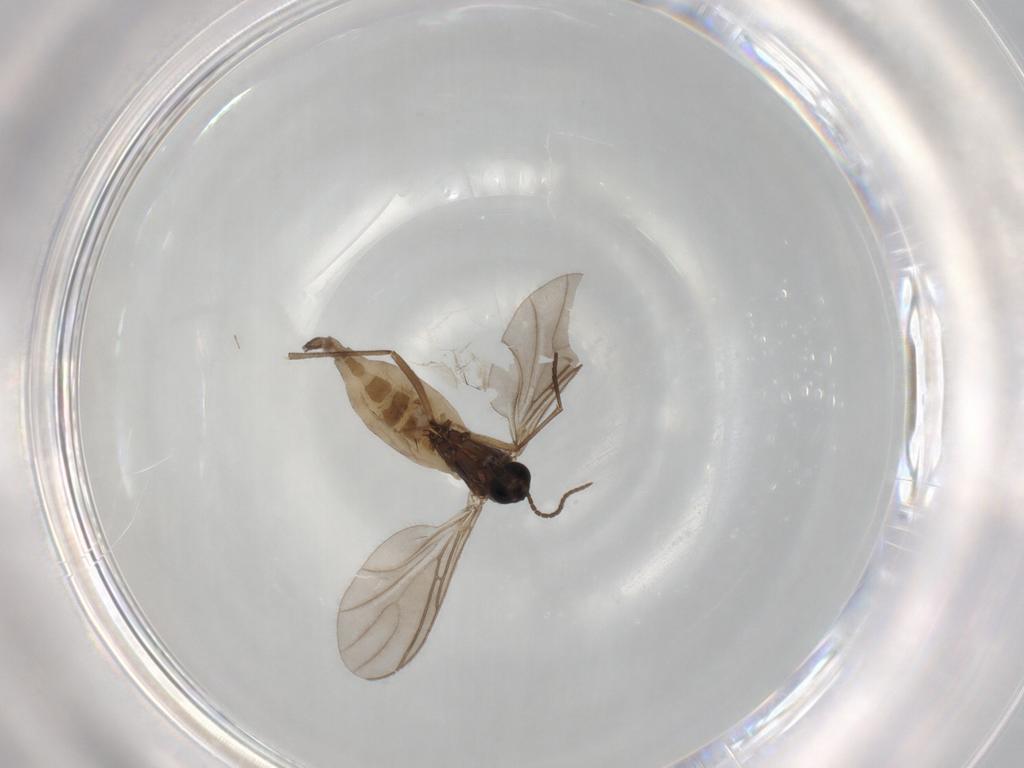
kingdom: Animalia
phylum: Arthropoda
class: Insecta
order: Diptera
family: Sciaridae
